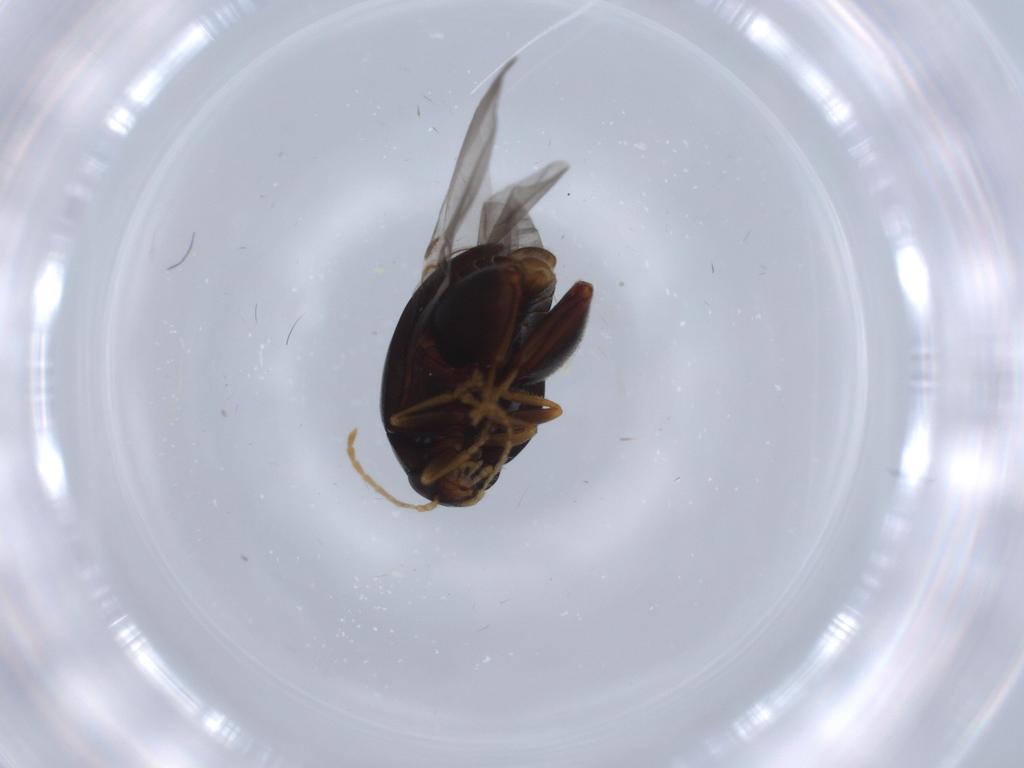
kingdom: Animalia
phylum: Arthropoda
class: Insecta
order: Coleoptera
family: Chrysomelidae
